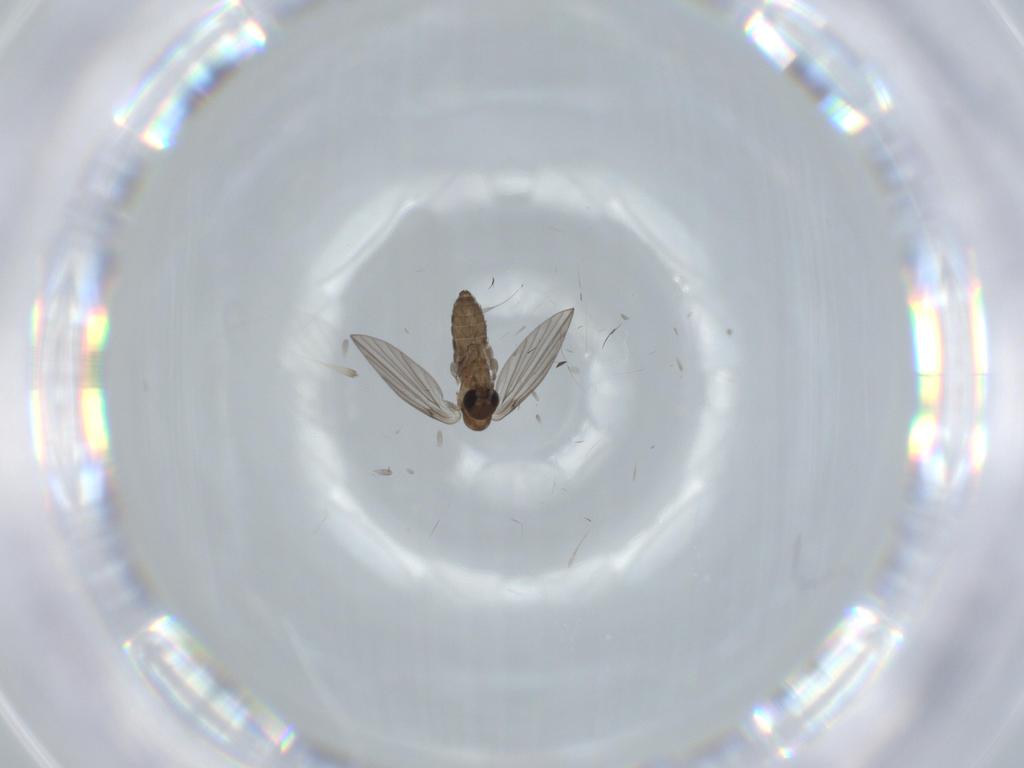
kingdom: Animalia
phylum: Arthropoda
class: Insecta
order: Diptera
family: Psychodidae
